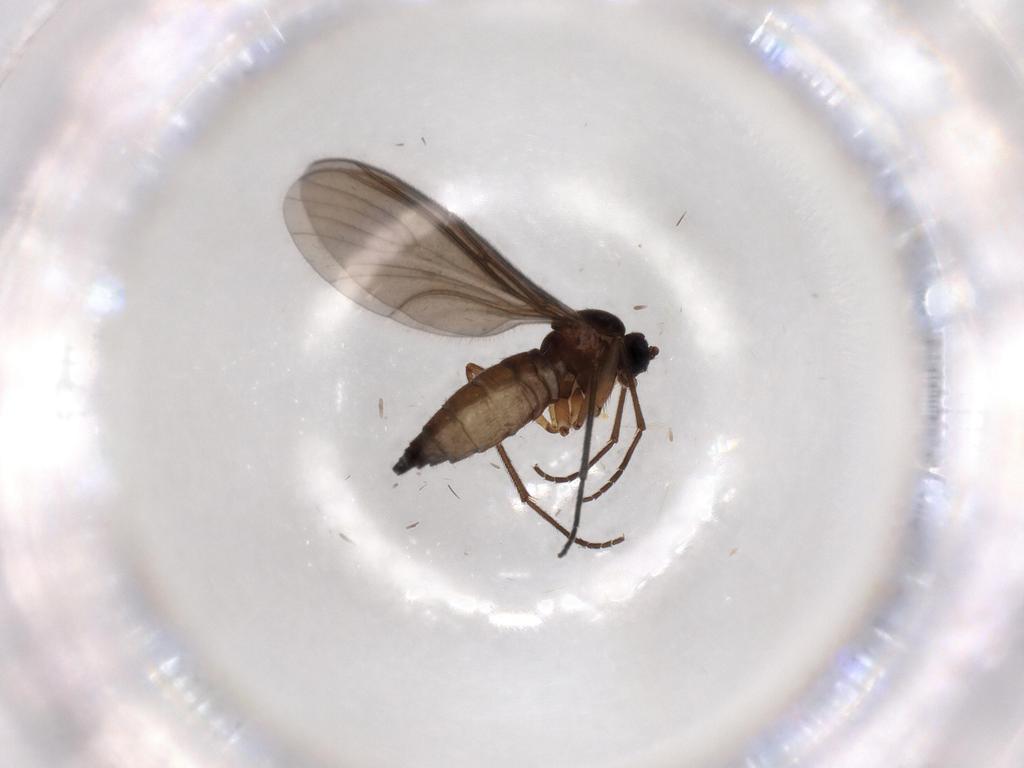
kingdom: Animalia
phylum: Arthropoda
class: Insecta
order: Diptera
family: Sciaridae
